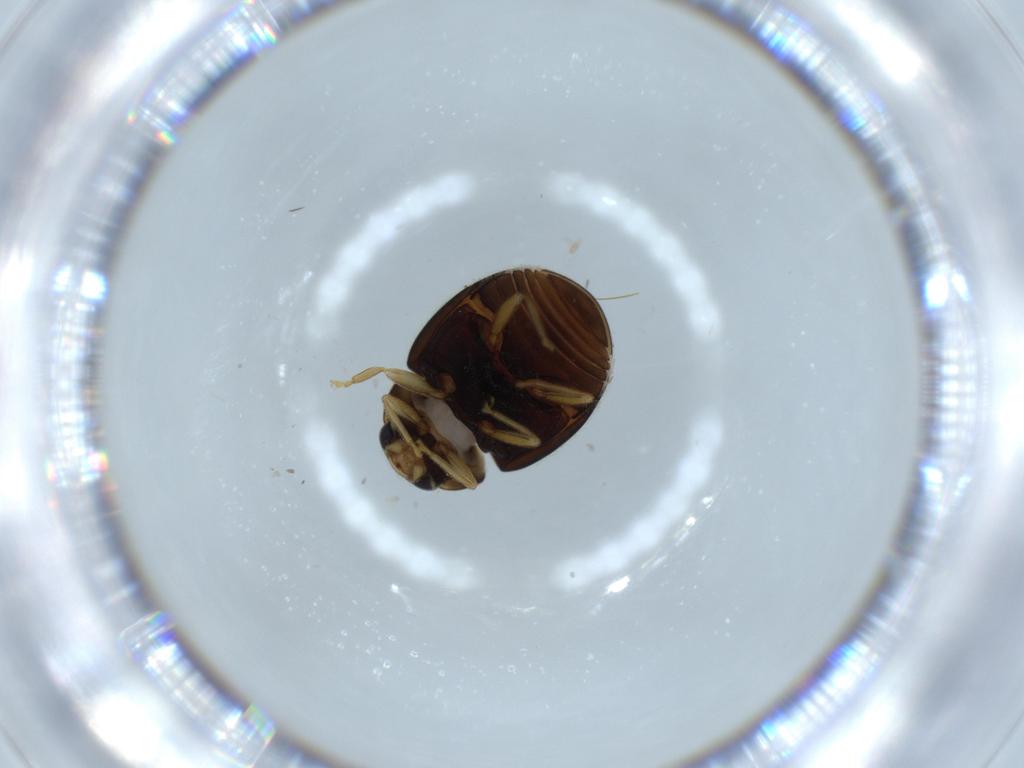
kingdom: Animalia
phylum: Arthropoda
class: Insecta
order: Coleoptera
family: Coccinellidae
